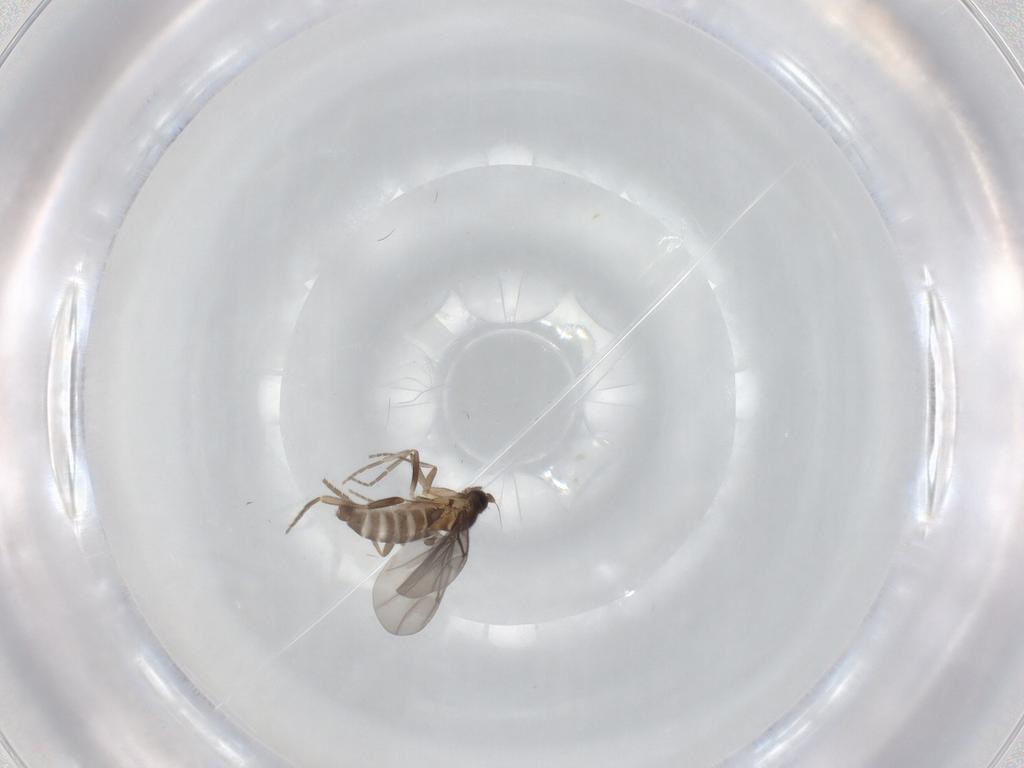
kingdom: Animalia
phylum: Arthropoda
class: Insecta
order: Diptera
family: Phoridae
